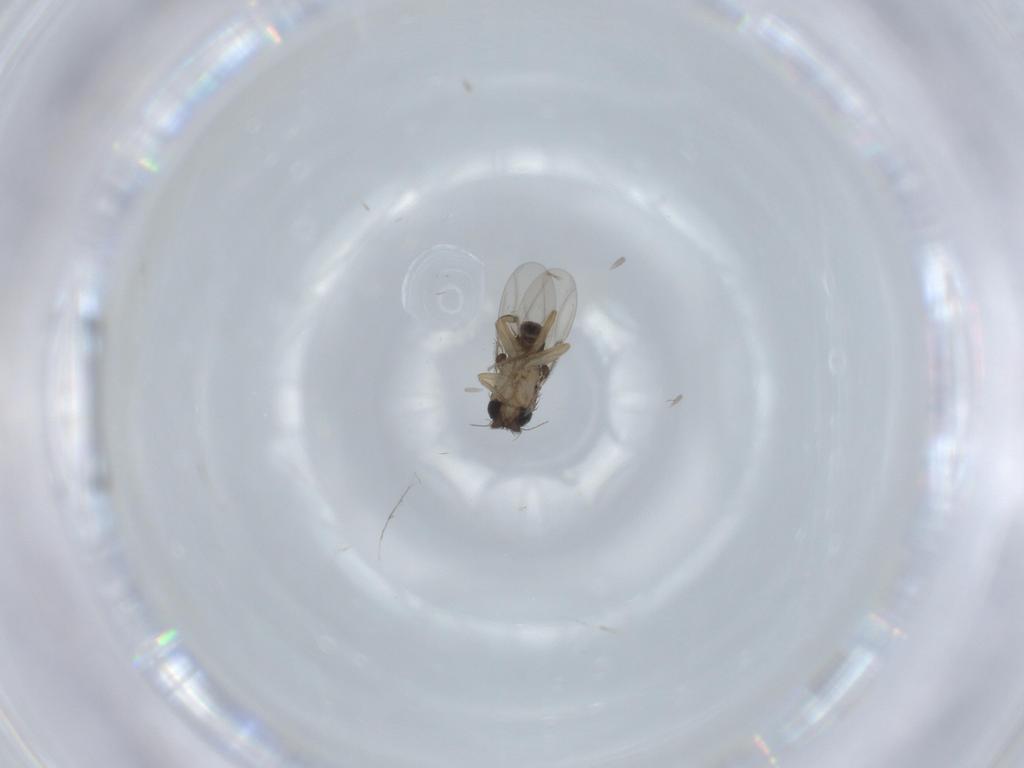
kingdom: Animalia
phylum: Arthropoda
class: Insecta
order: Diptera
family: Phoridae
